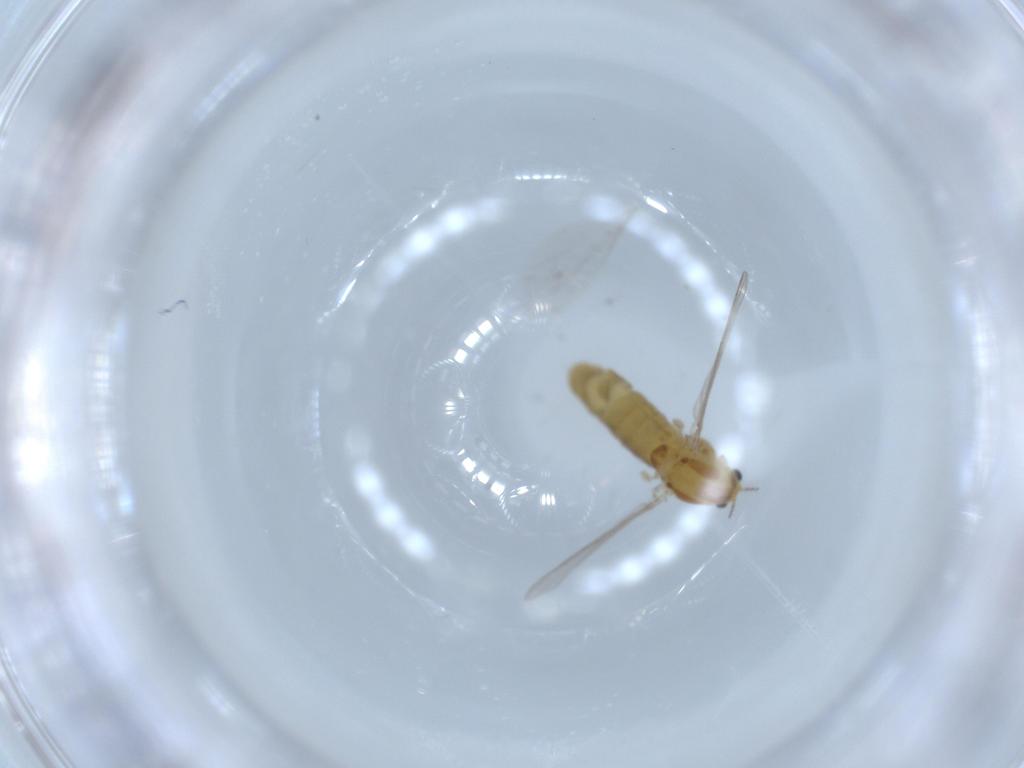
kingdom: Animalia
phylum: Arthropoda
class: Insecta
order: Diptera
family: Chironomidae
